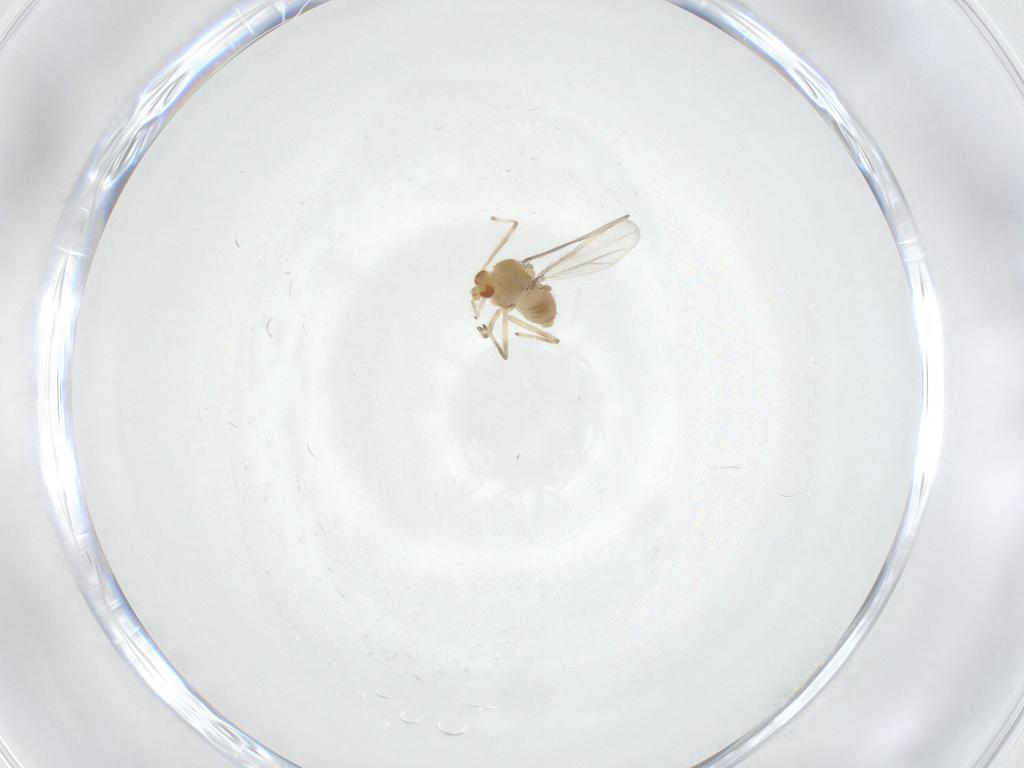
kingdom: Animalia
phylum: Arthropoda
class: Insecta
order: Diptera
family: Chironomidae
